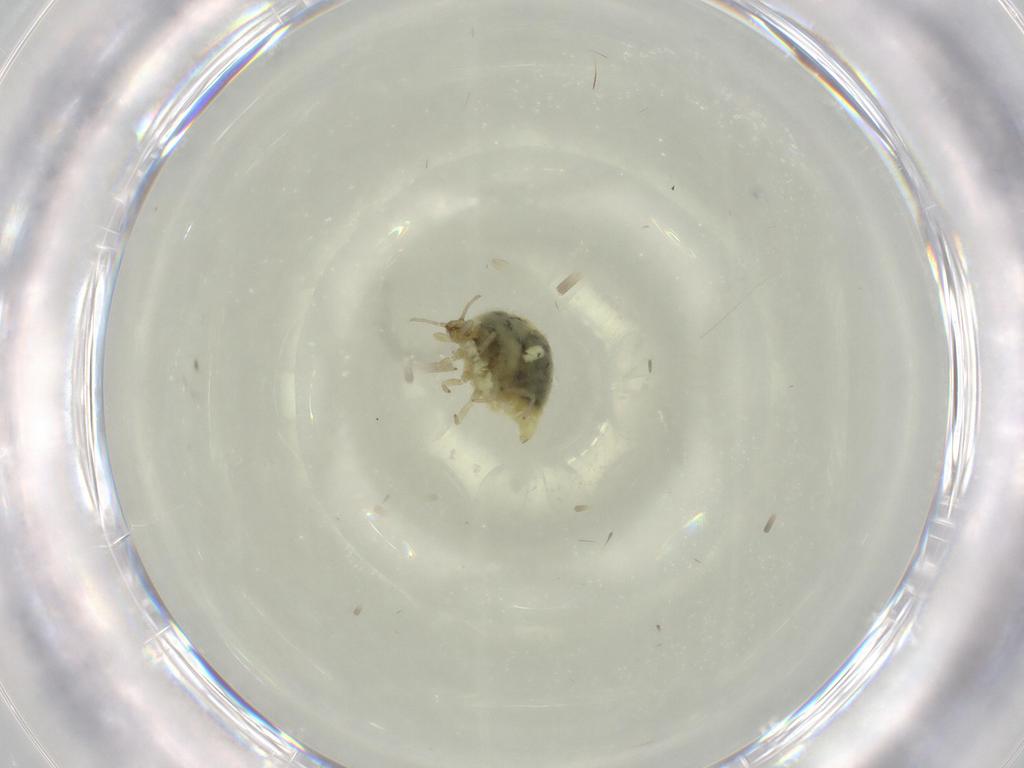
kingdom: Animalia
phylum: Arthropoda
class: Insecta
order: Neuroptera
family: Coniopterygidae
